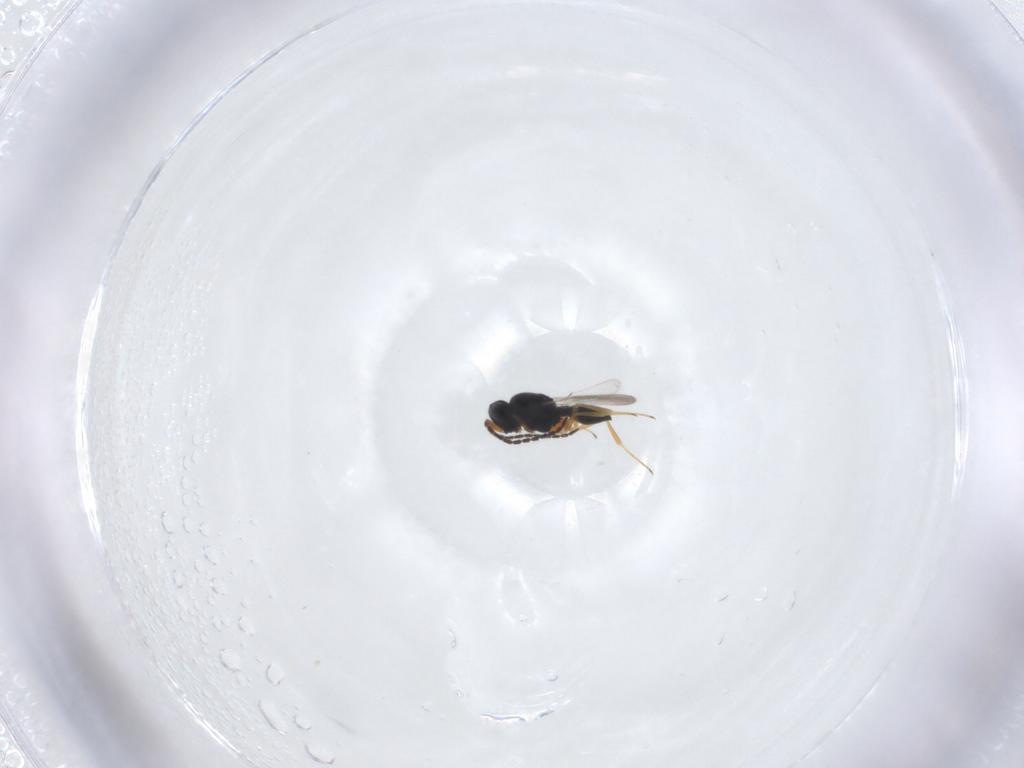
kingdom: Animalia
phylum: Arthropoda
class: Insecta
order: Hymenoptera
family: Scelionidae
